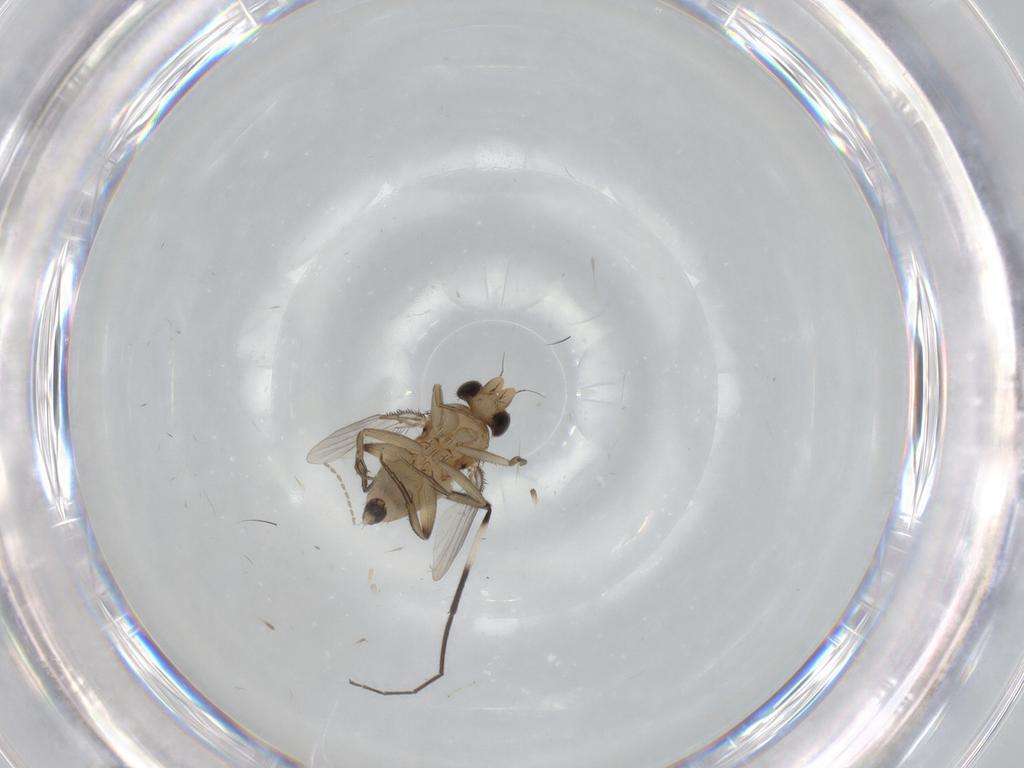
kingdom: Animalia
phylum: Arthropoda
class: Insecta
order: Diptera
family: Phoridae
